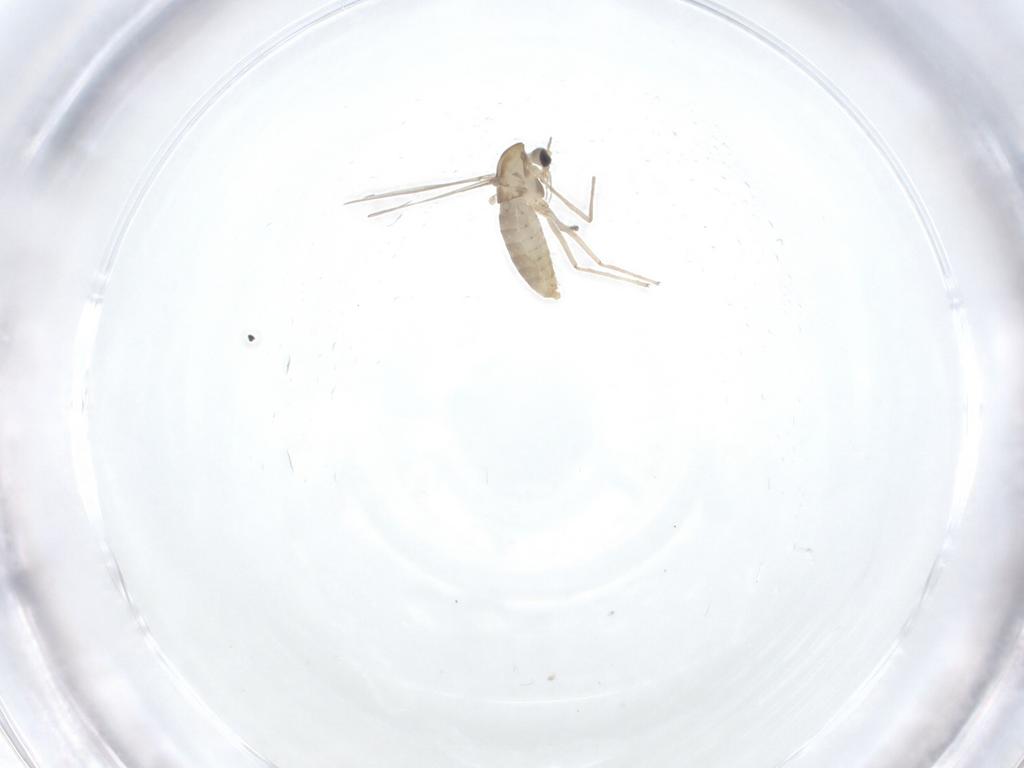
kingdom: Animalia
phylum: Arthropoda
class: Insecta
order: Diptera
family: Chironomidae
